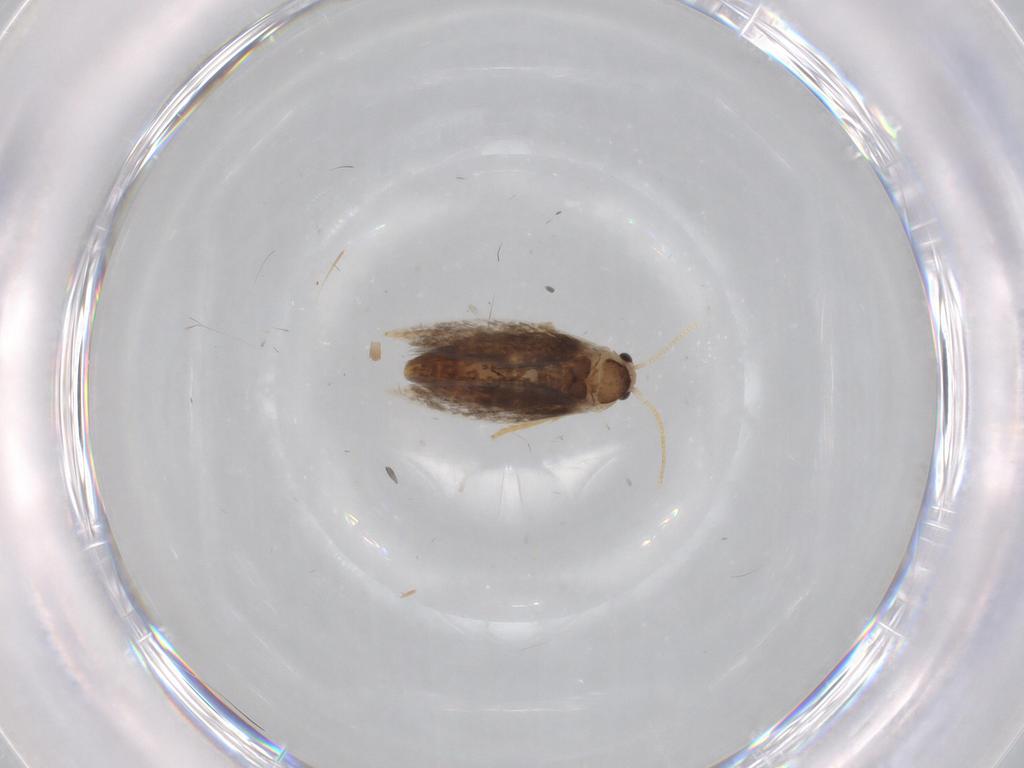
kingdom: Animalia
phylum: Arthropoda
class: Insecta
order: Lepidoptera
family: Nepticulidae
